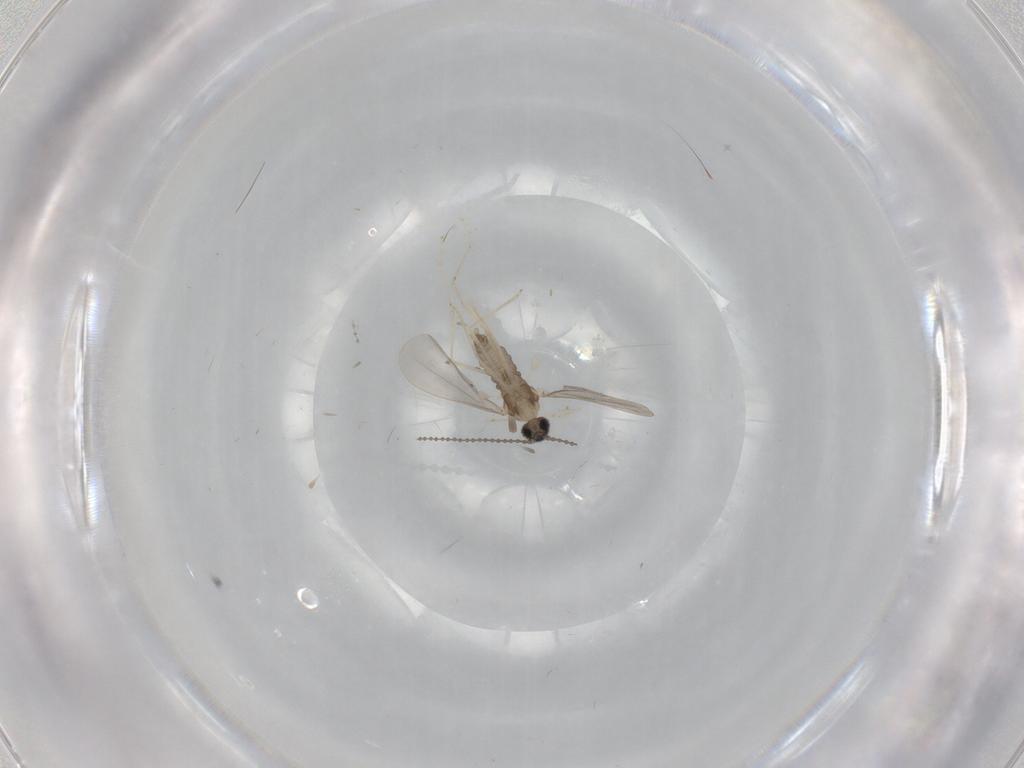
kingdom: Animalia
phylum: Arthropoda
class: Insecta
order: Diptera
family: Cecidomyiidae
